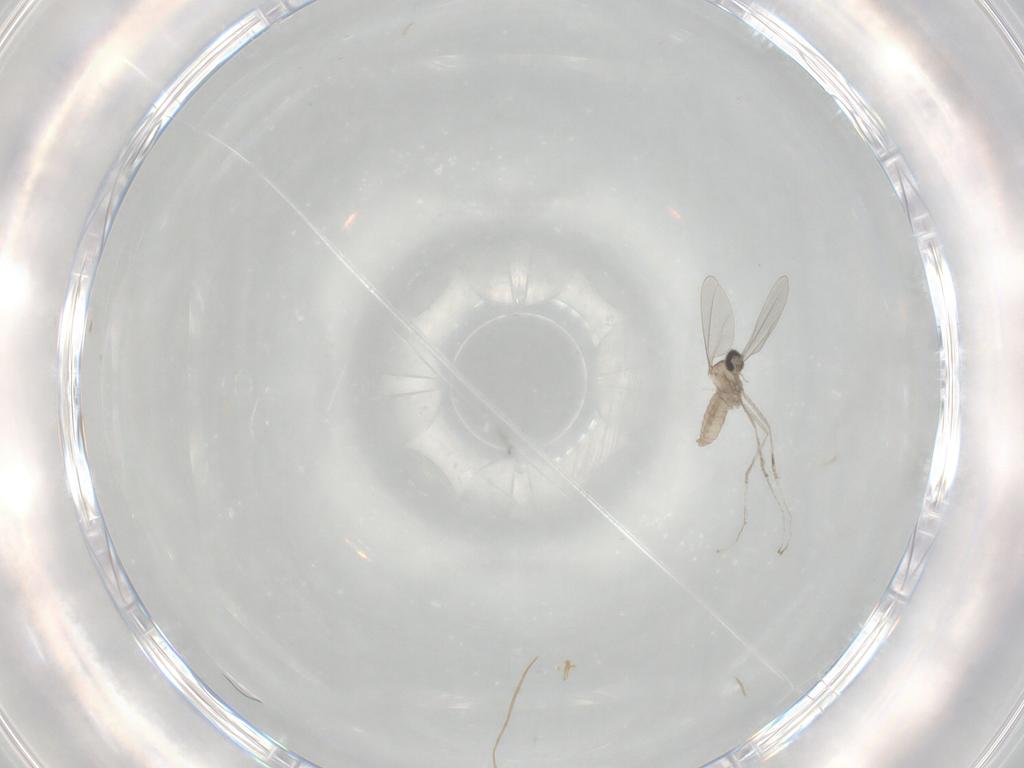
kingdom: Animalia
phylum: Arthropoda
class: Insecta
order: Diptera
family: Cecidomyiidae
